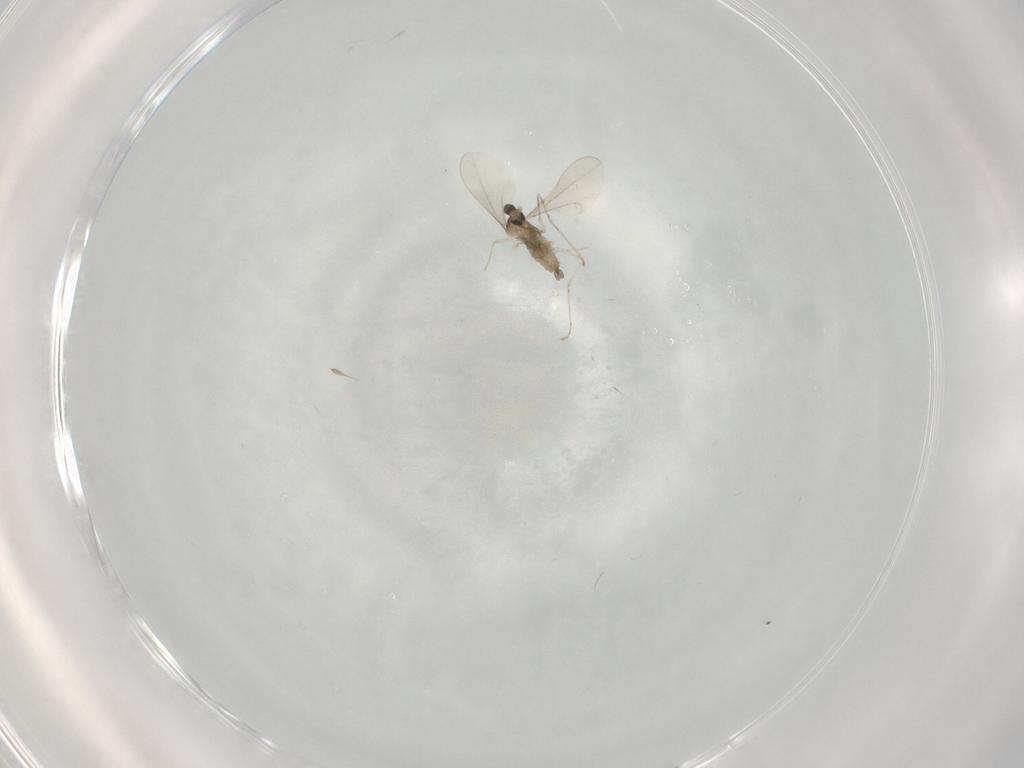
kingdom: Animalia
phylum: Arthropoda
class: Insecta
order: Diptera
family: Cecidomyiidae
